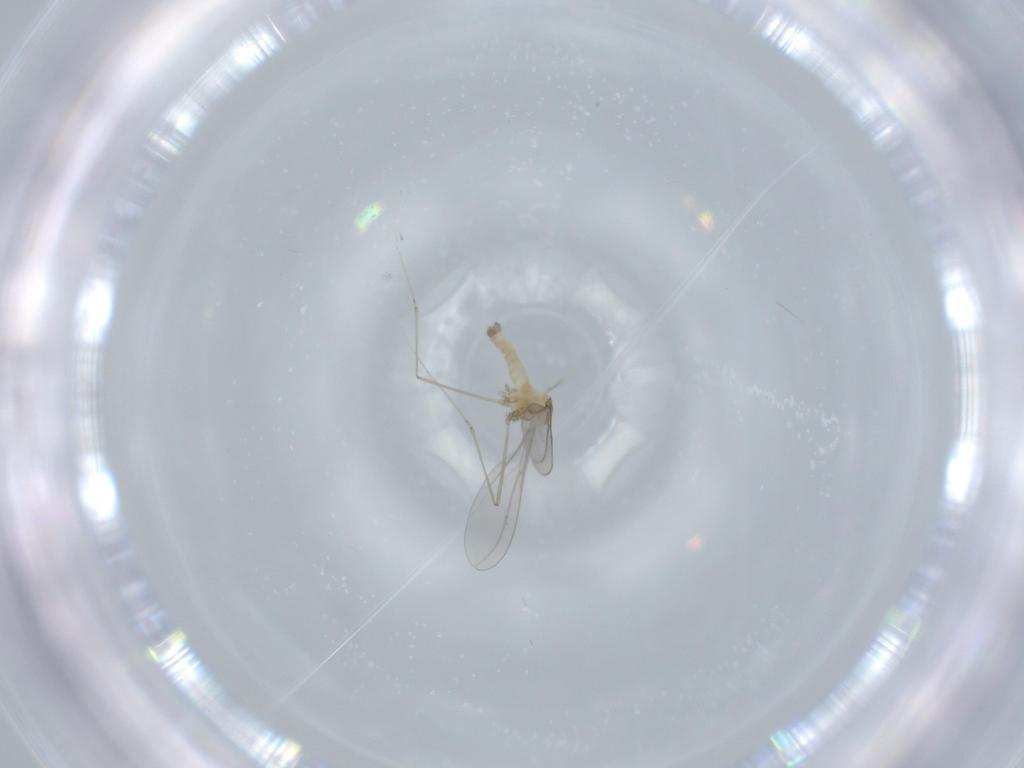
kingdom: Animalia
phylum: Arthropoda
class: Insecta
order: Diptera
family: Cecidomyiidae
